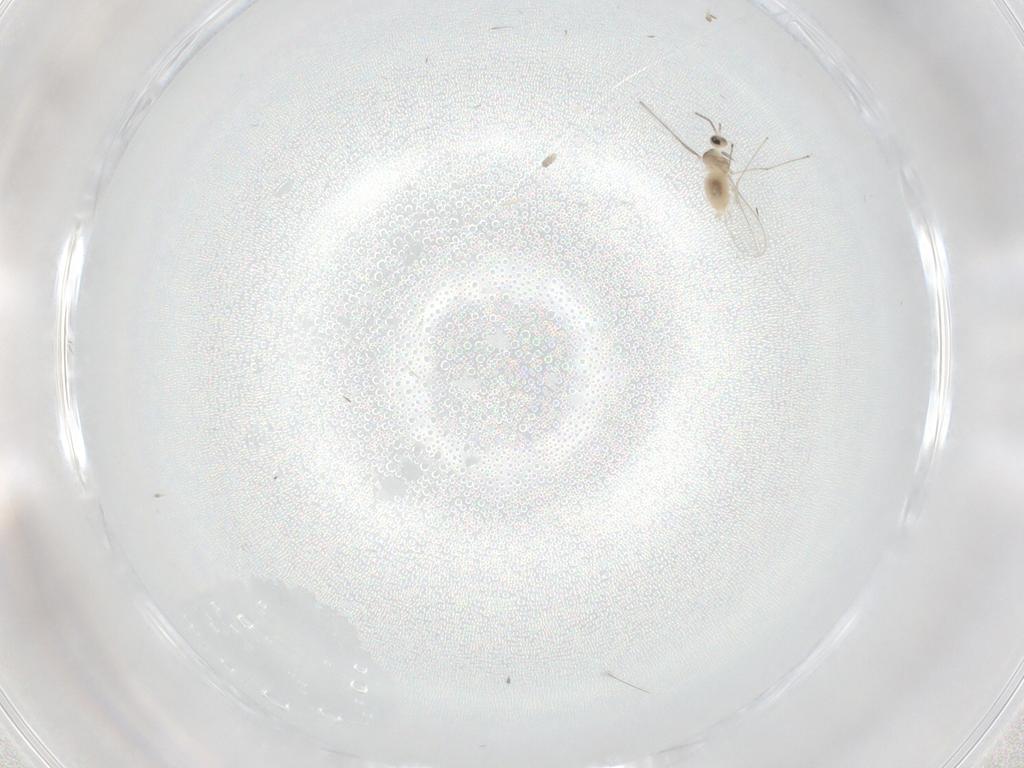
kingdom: Animalia
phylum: Arthropoda
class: Insecta
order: Diptera
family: Cecidomyiidae
